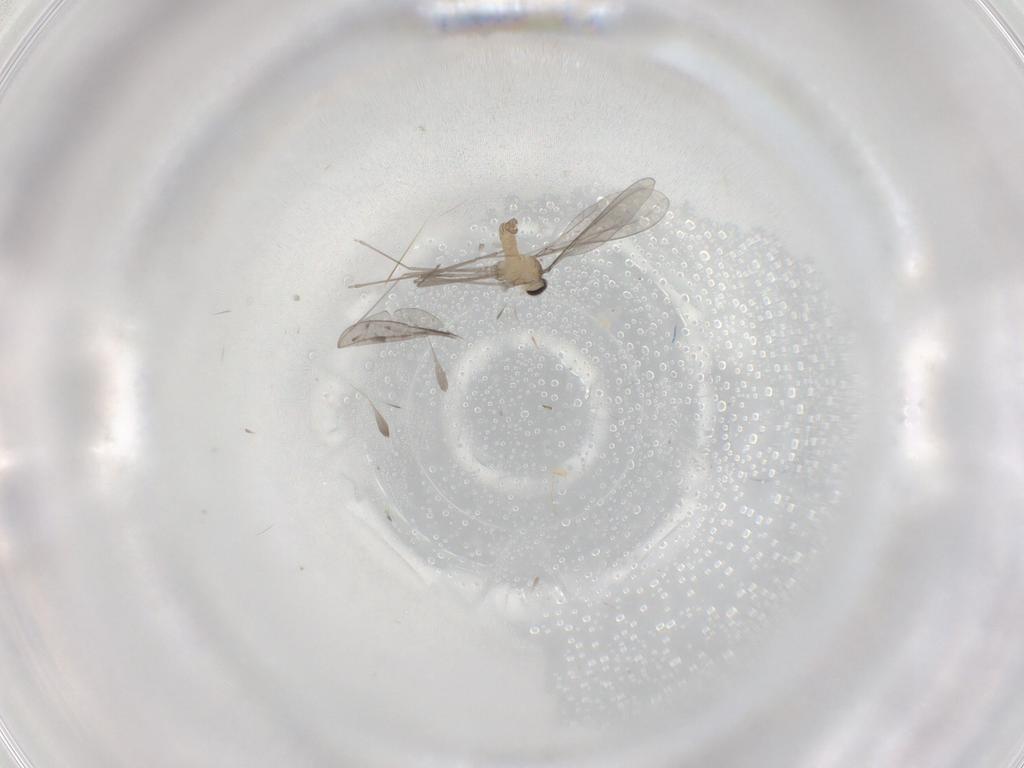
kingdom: Animalia
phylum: Arthropoda
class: Insecta
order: Diptera
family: Cecidomyiidae
